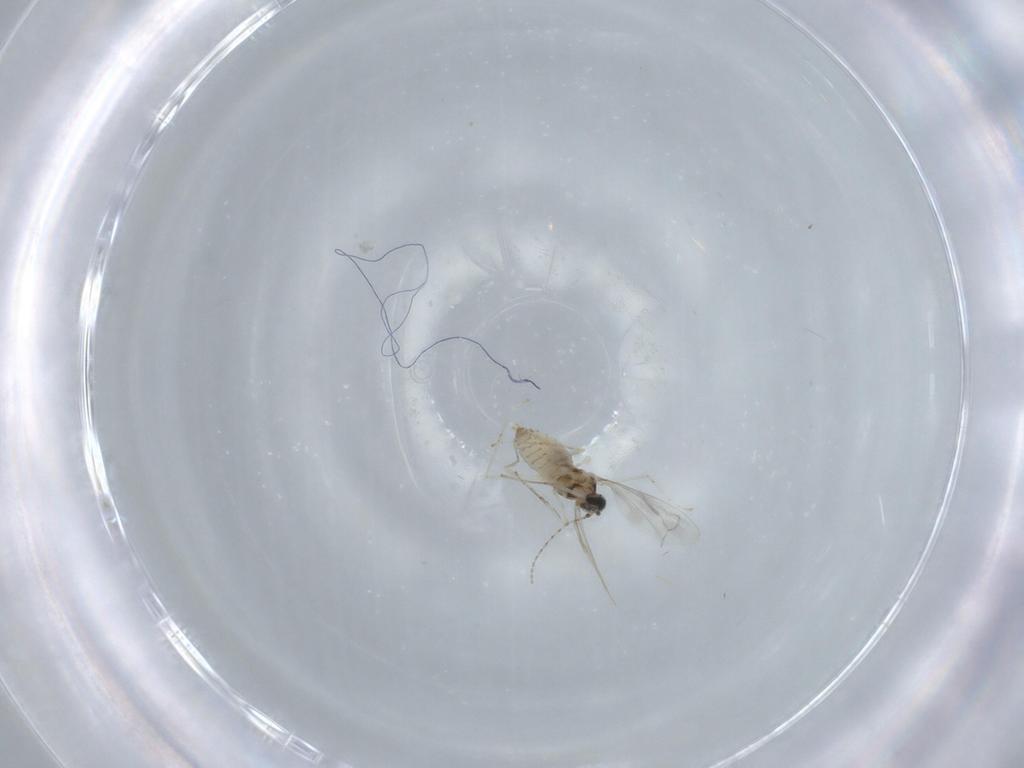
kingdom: Animalia
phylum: Arthropoda
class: Insecta
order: Diptera
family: Cecidomyiidae
